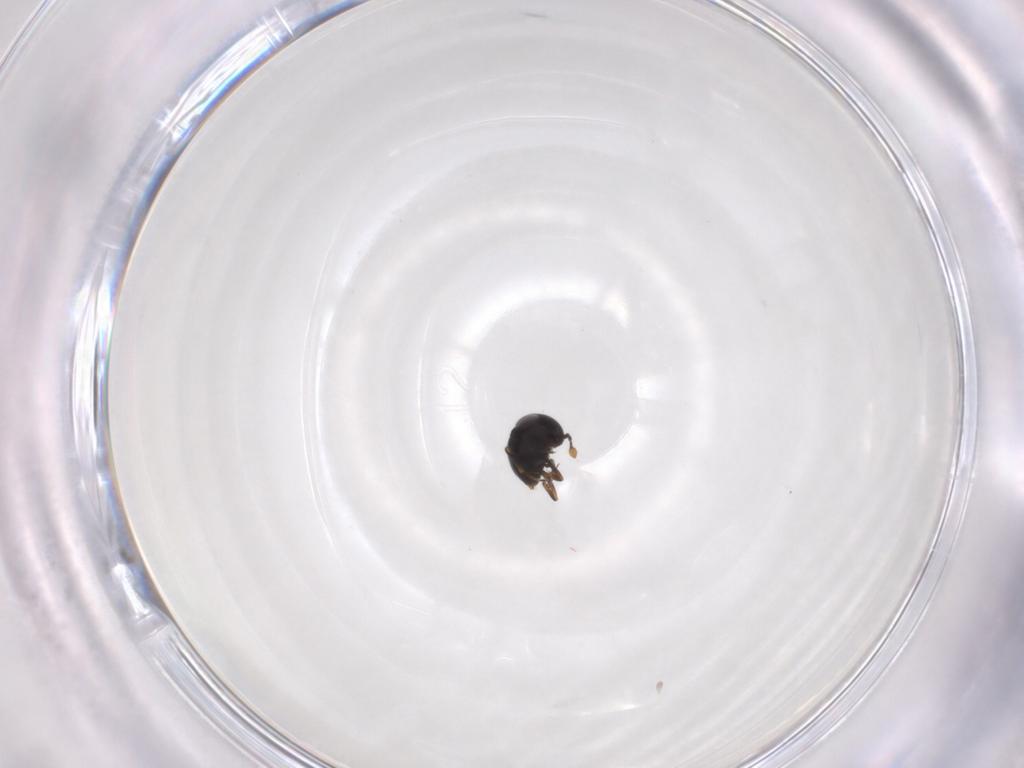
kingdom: Animalia
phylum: Arthropoda
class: Insecta
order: Hymenoptera
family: Scelionidae
